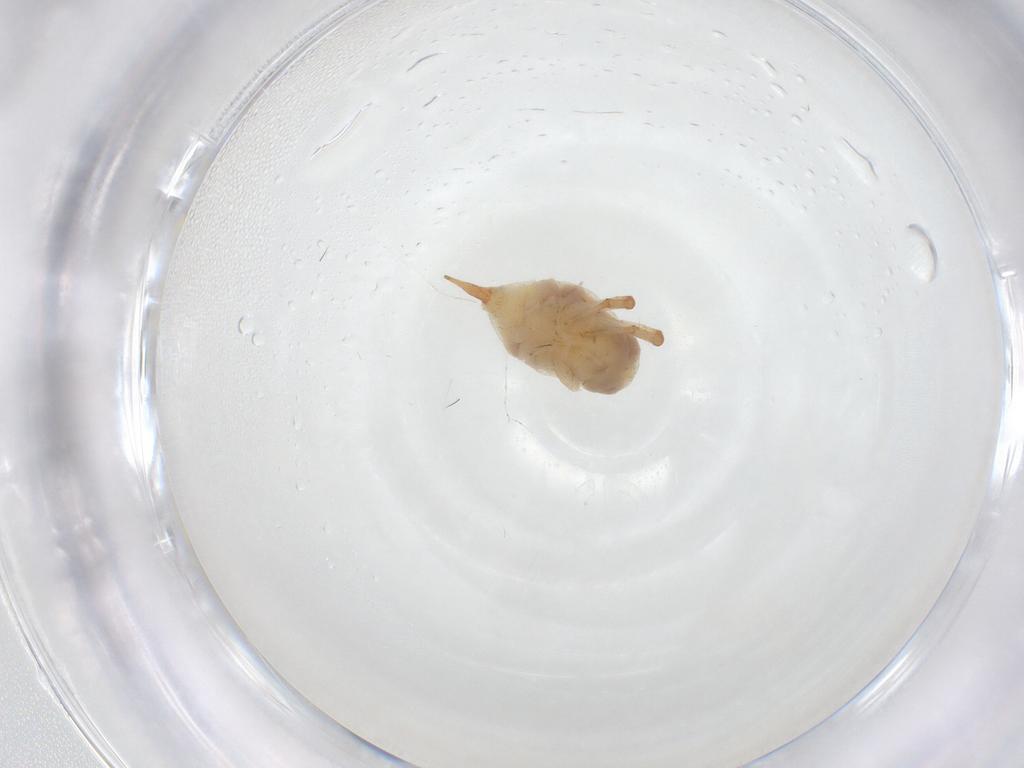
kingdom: Animalia
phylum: Arthropoda
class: Arachnida
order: Trombidiformes
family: Bdellidae
